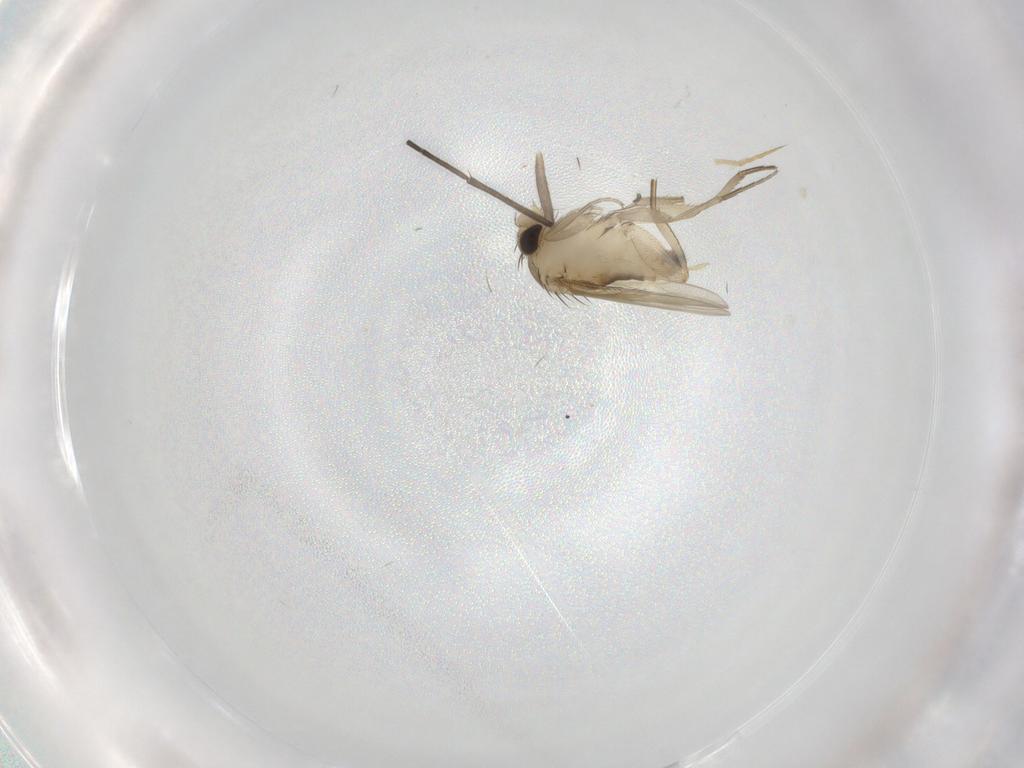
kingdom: Animalia
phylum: Arthropoda
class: Insecta
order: Diptera
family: Phoridae
